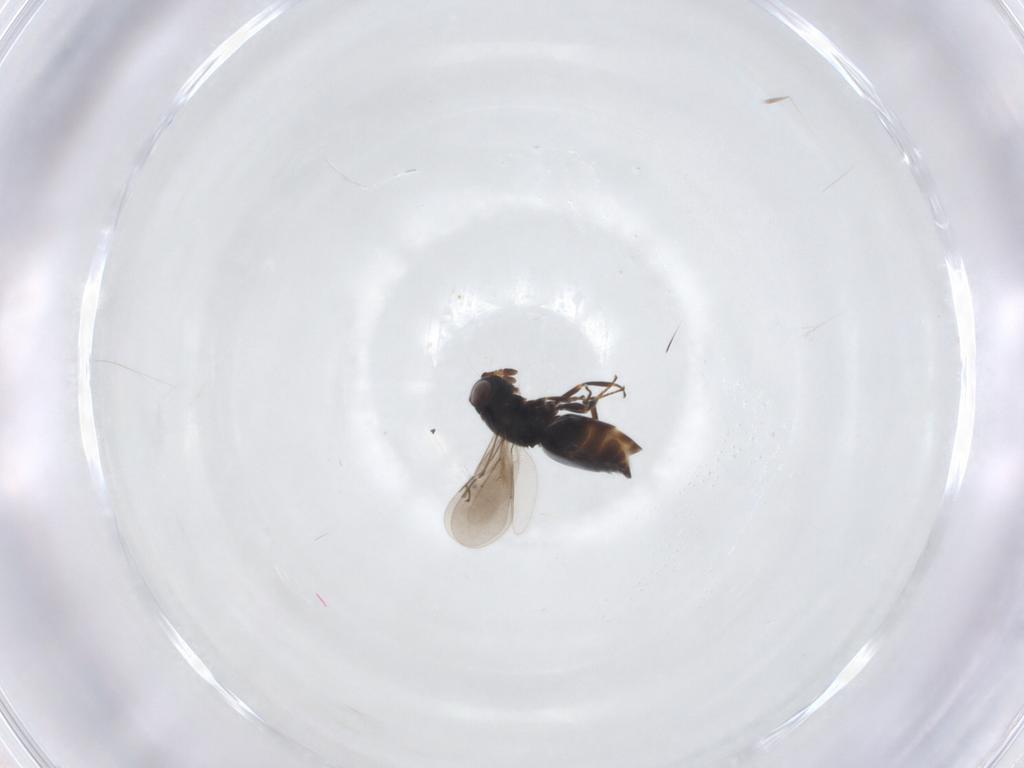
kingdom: Animalia
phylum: Arthropoda
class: Insecta
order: Hymenoptera
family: Eunotidae
